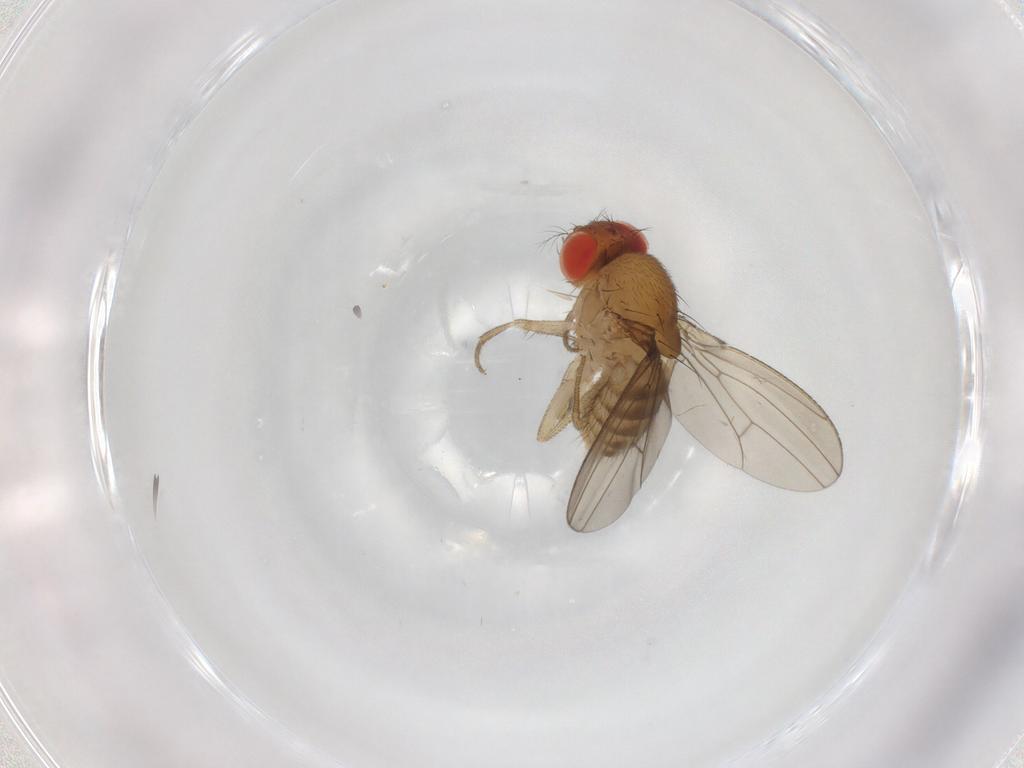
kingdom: Animalia
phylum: Arthropoda
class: Insecta
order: Diptera
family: Drosophilidae
